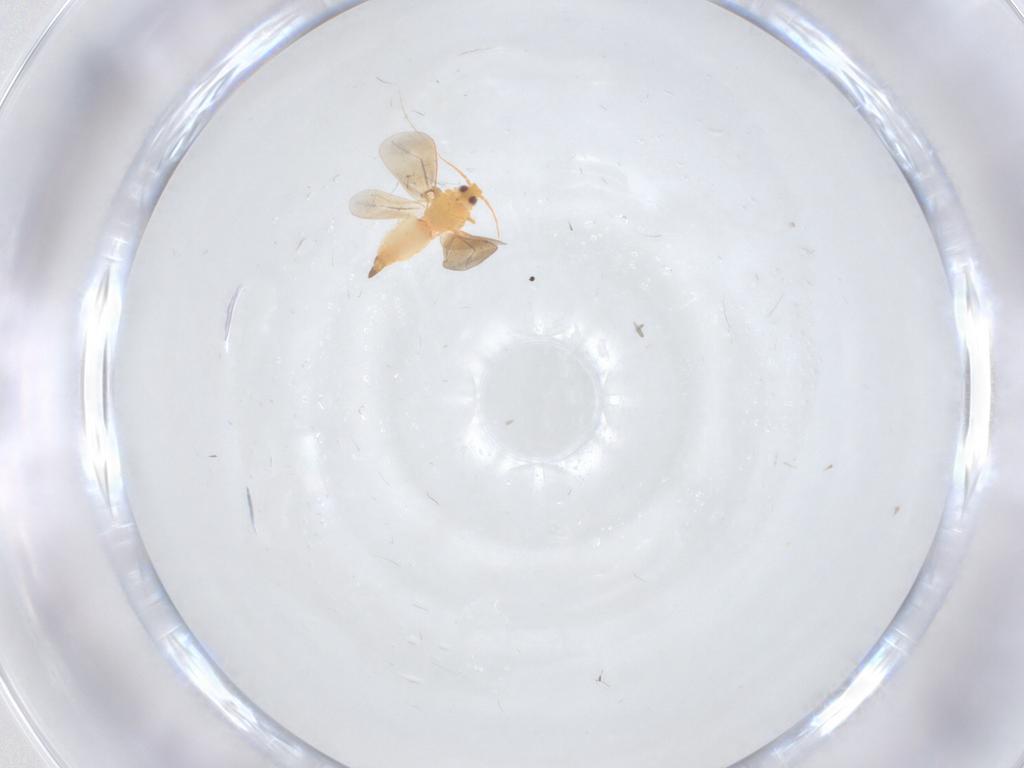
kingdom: Animalia
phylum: Arthropoda
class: Insecta
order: Hemiptera
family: Aleyrodidae
